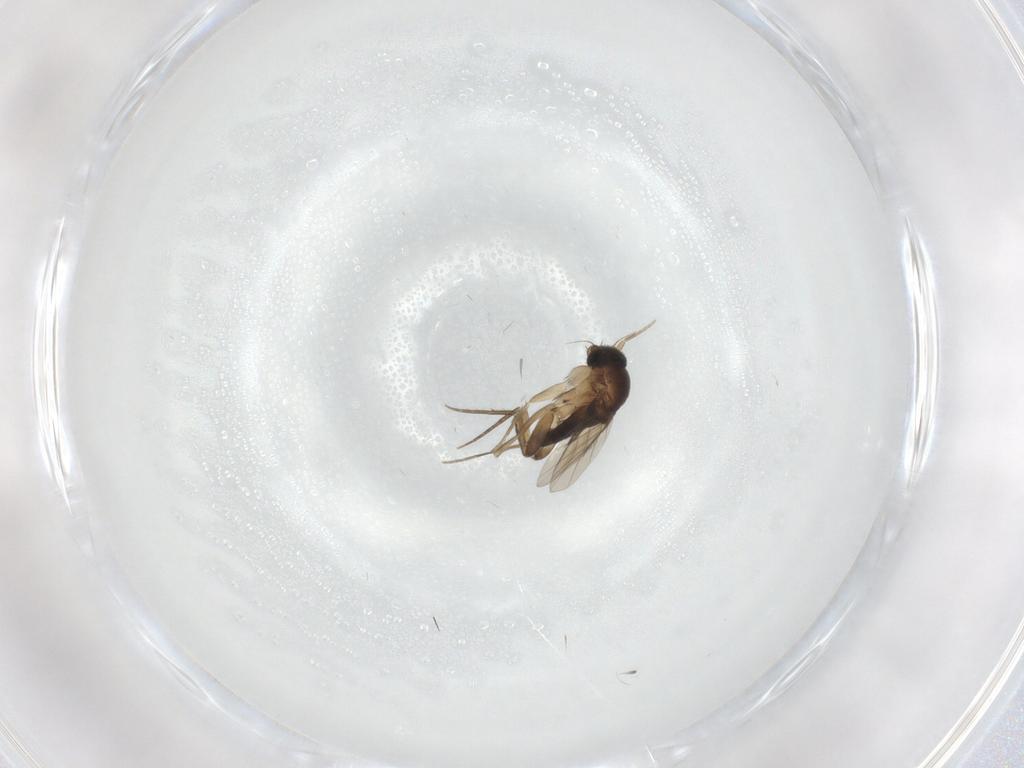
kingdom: Animalia
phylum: Arthropoda
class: Insecta
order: Diptera
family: Phoridae
